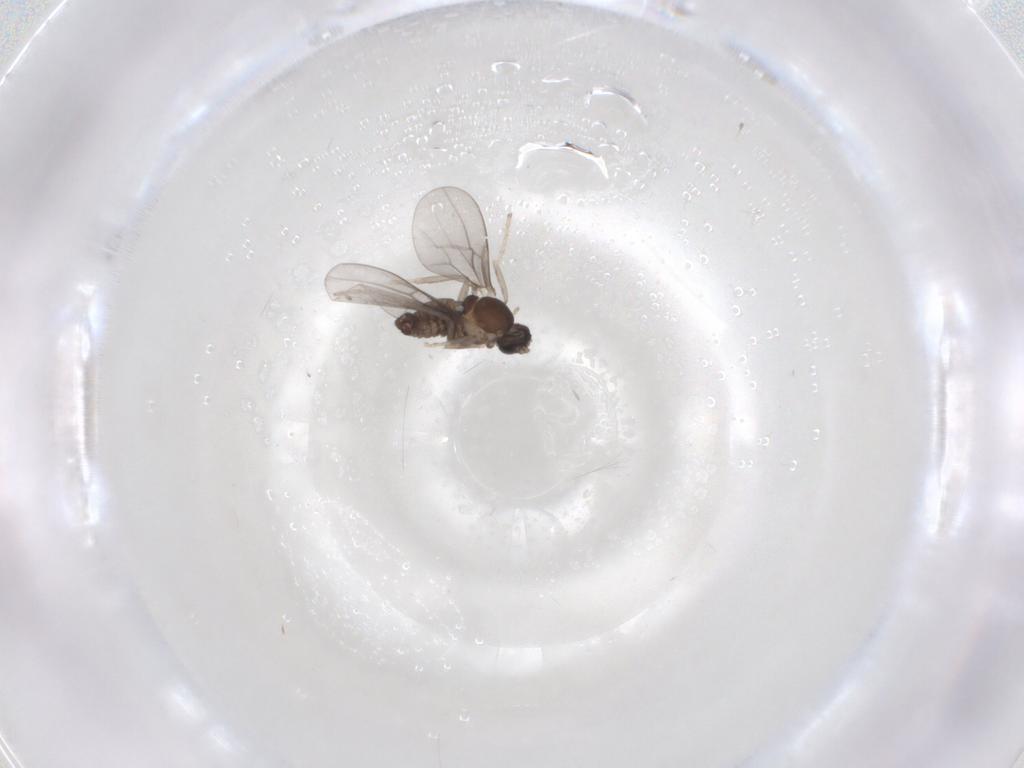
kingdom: Animalia
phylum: Arthropoda
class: Insecta
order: Diptera
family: Cecidomyiidae
